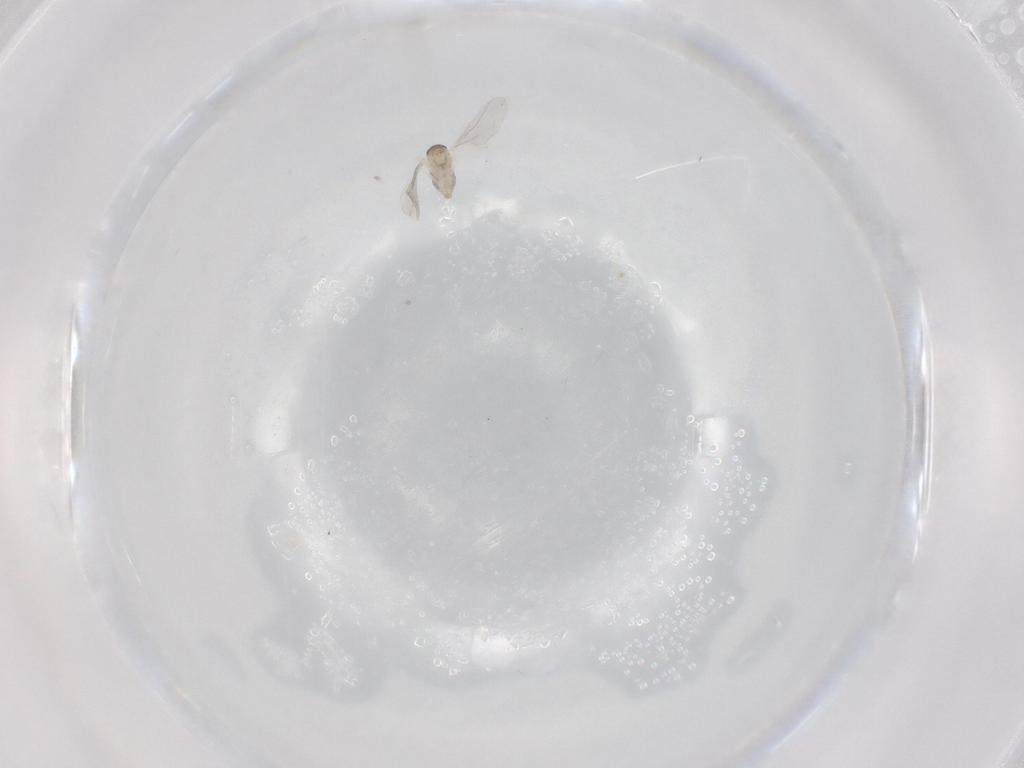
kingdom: Animalia
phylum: Arthropoda
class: Insecta
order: Diptera
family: Cecidomyiidae
